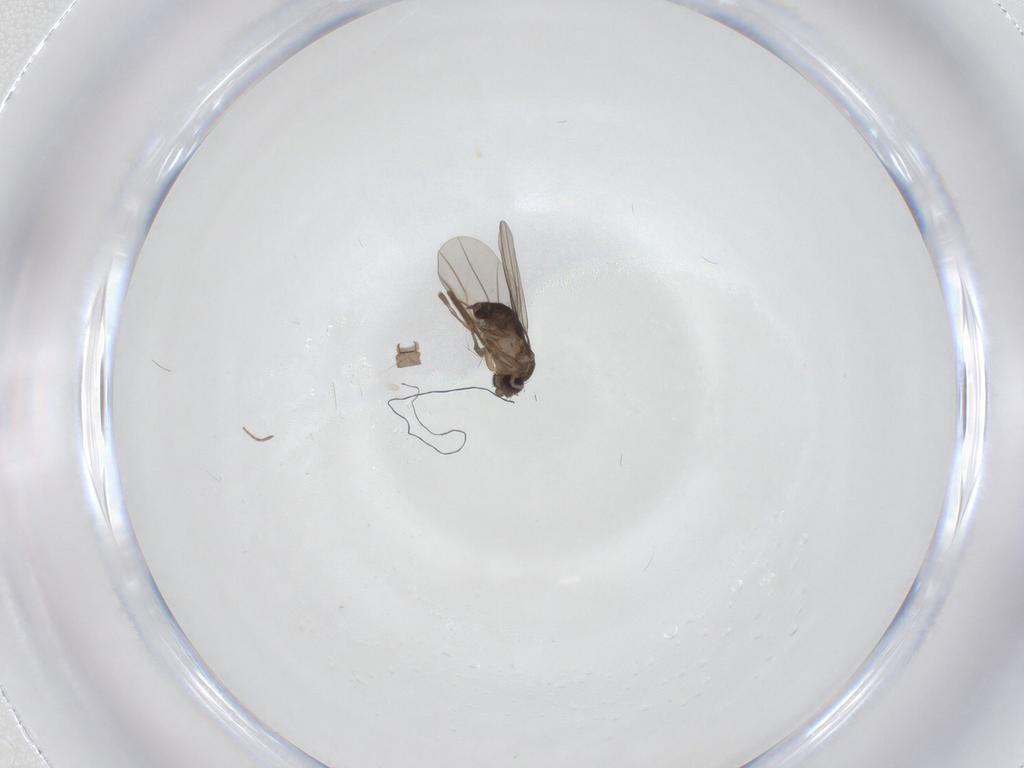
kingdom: Animalia
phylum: Arthropoda
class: Insecta
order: Diptera
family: Phoridae
